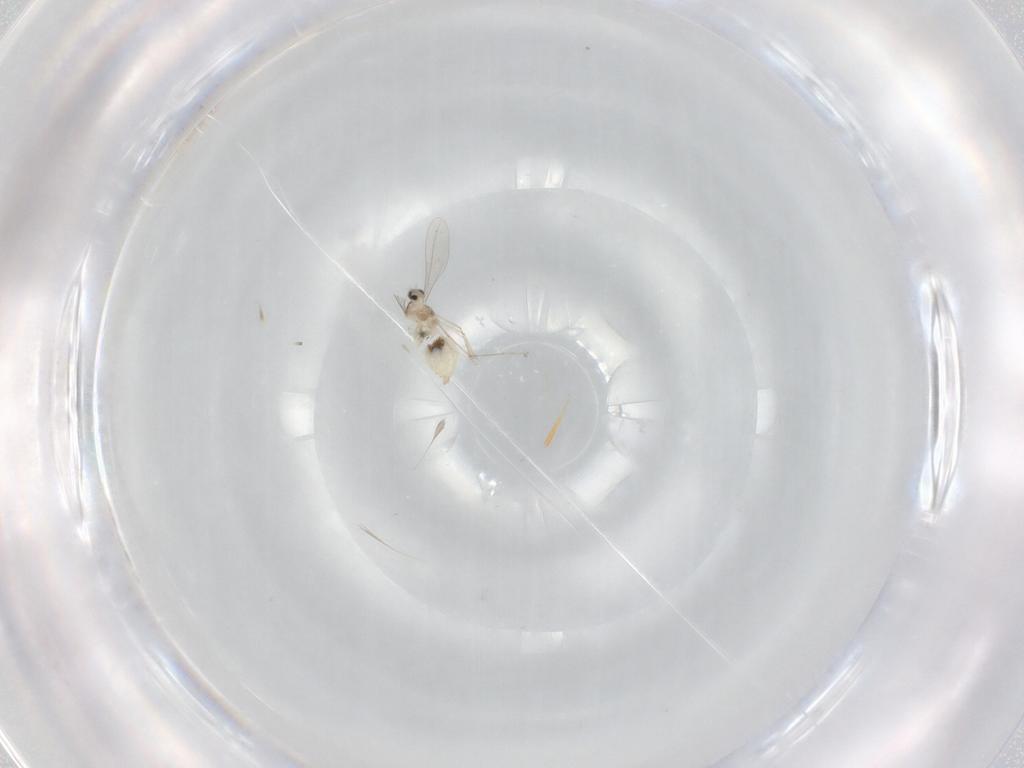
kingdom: Animalia
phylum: Arthropoda
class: Insecta
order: Diptera
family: Cecidomyiidae
